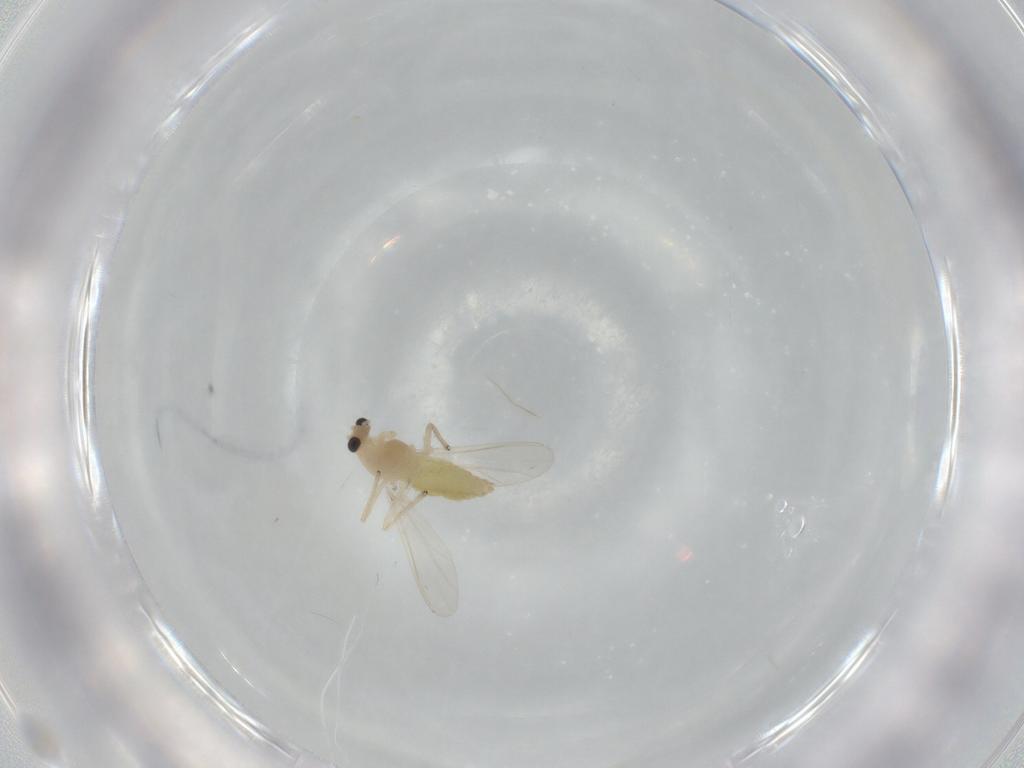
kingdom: Animalia
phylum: Arthropoda
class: Insecta
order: Diptera
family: Chironomidae
